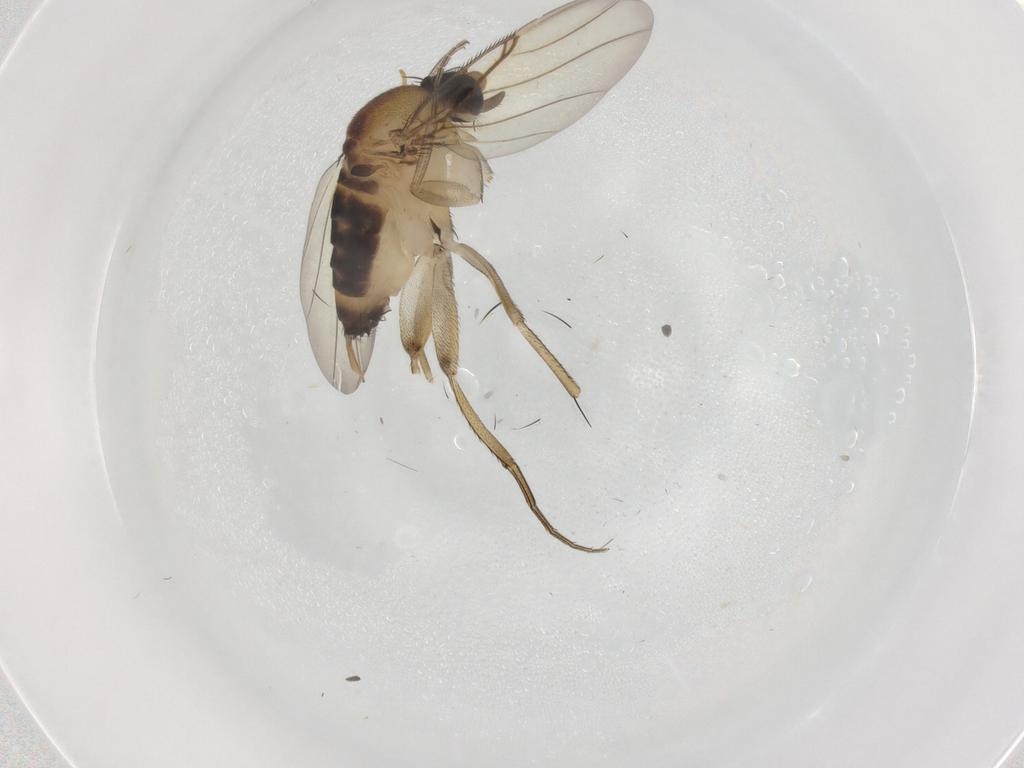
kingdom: Animalia
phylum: Arthropoda
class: Insecta
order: Diptera
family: Phoridae
